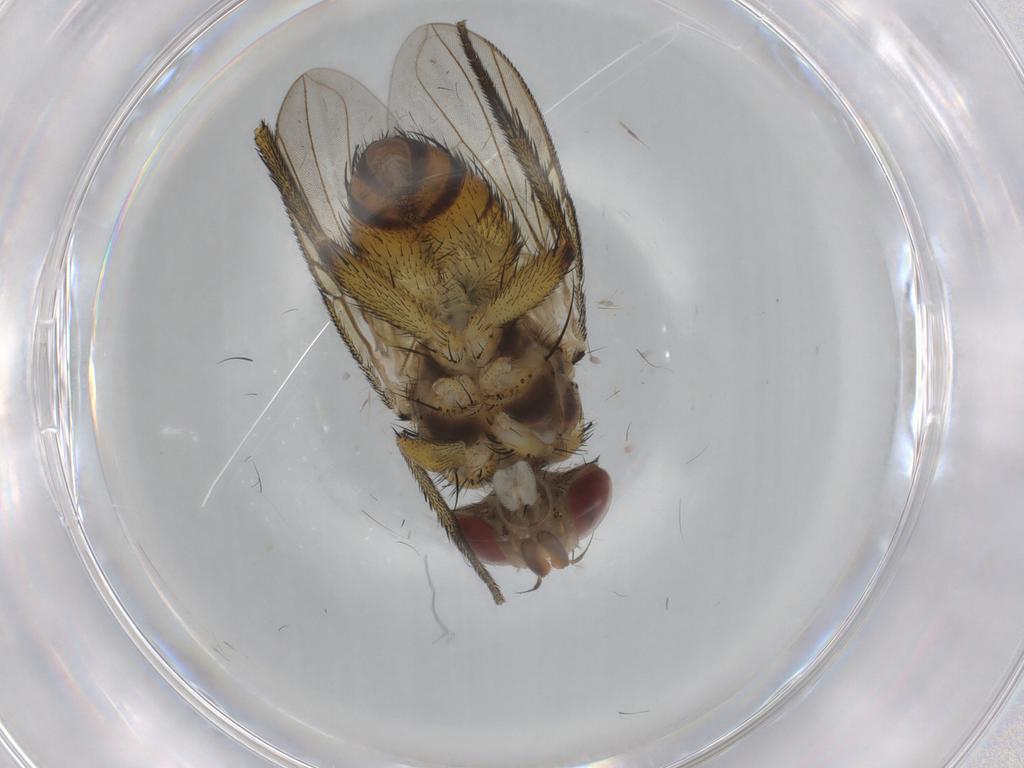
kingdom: Animalia
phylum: Arthropoda
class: Insecta
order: Diptera
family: Tachinidae
